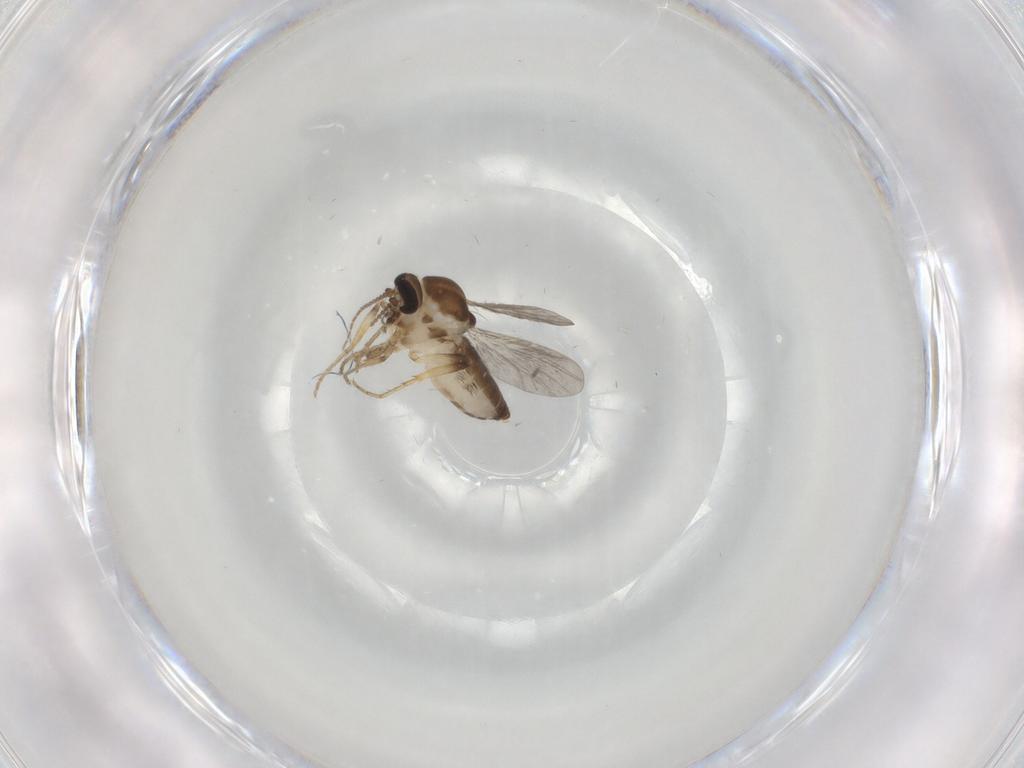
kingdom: Animalia
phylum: Arthropoda
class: Insecta
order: Diptera
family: Ceratopogonidae
